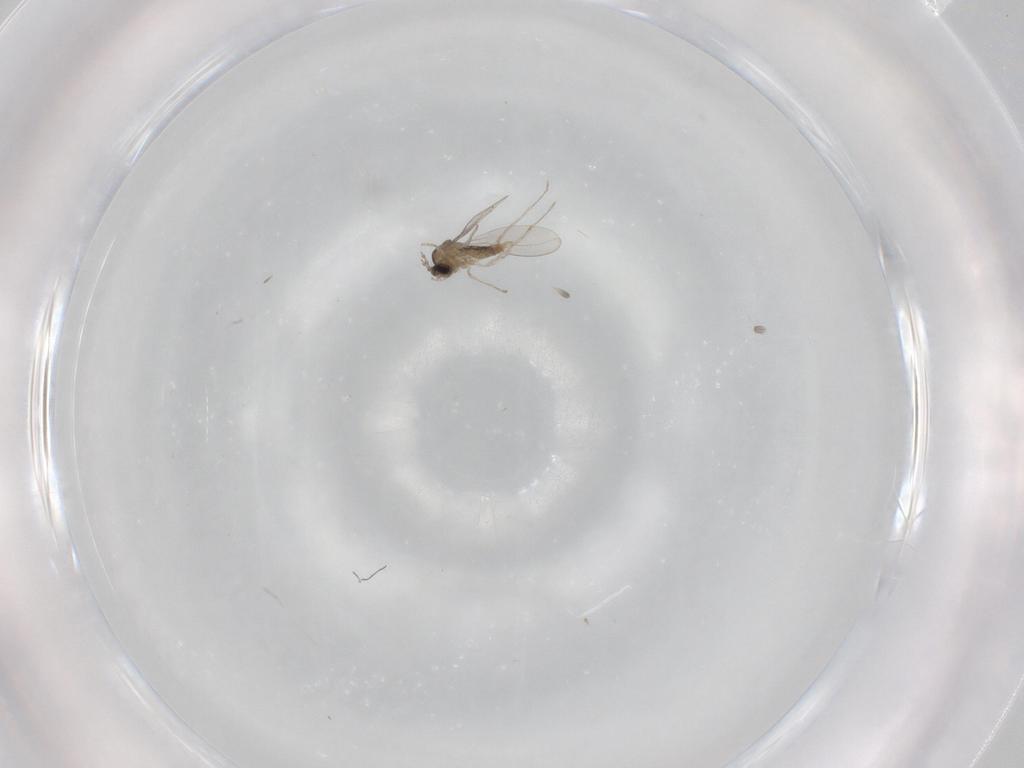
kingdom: Animalia
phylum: Arthropoda
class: Insecta
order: Diptera
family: Cecidomyiidae
